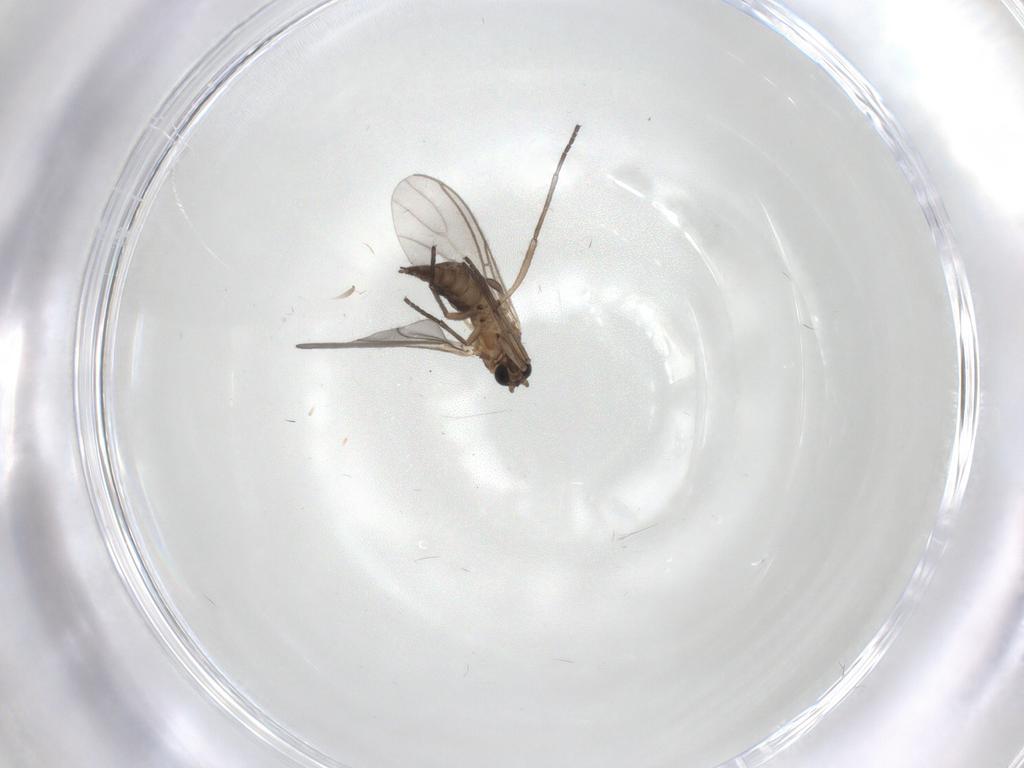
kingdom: Animalia
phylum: Arthropoda
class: Insecta
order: Diptera
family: Sciaridae
